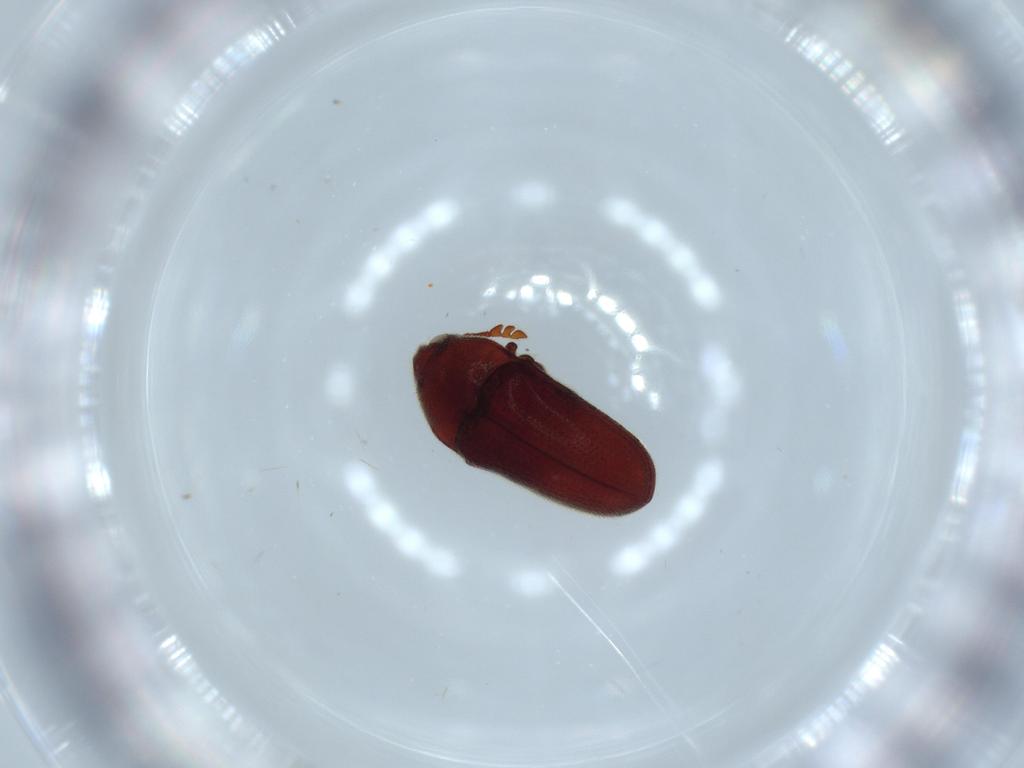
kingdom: Animalia
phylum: Arthropoda
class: Insecta
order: Coleoptera
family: Throscidae
